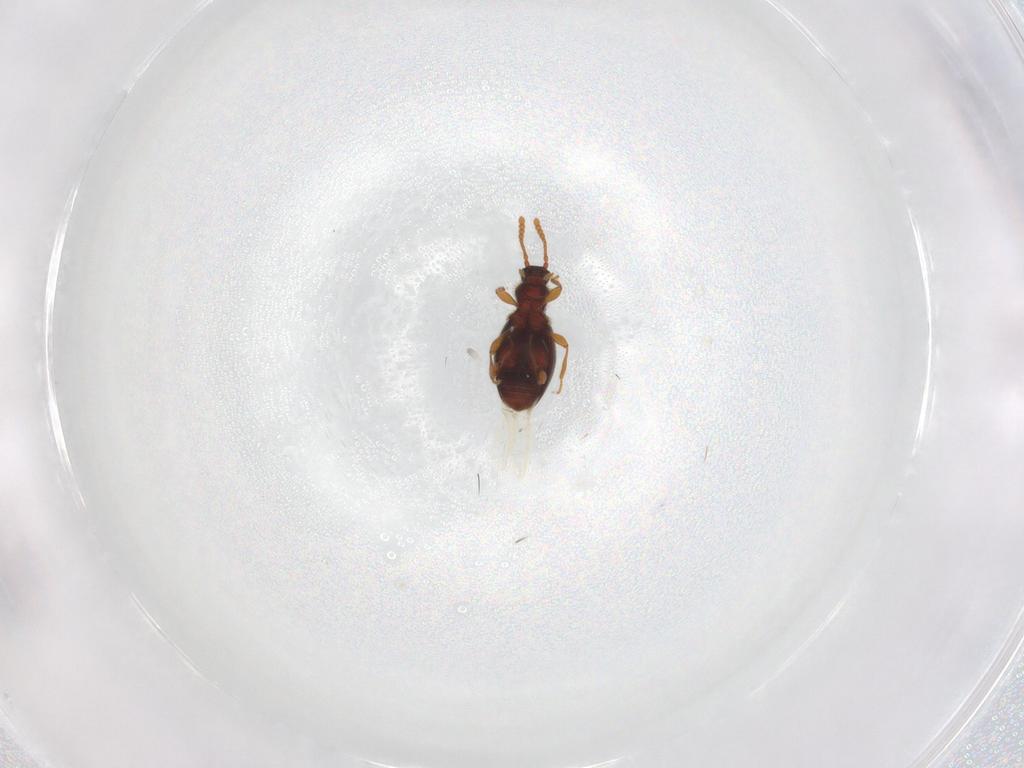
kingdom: Animalia
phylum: Arthropoda
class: Insecta
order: Coleoptera
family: Staphylinidae
